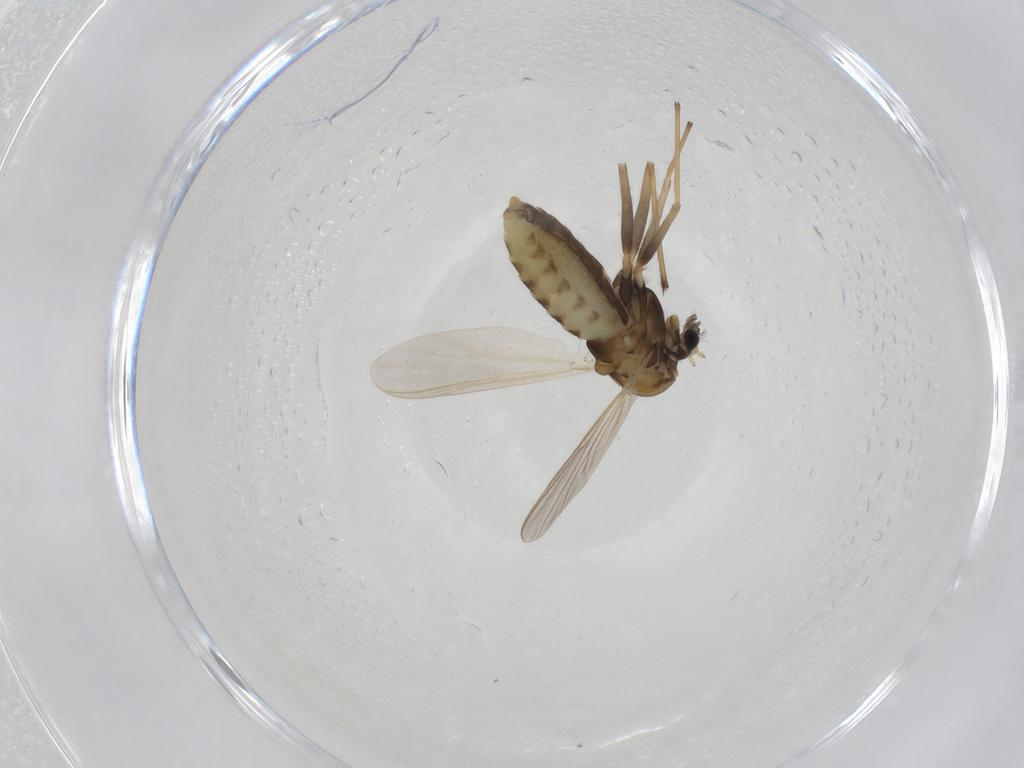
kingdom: Animalia
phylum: Arthropoda
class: Insecta
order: Diptera
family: Chironomidae
